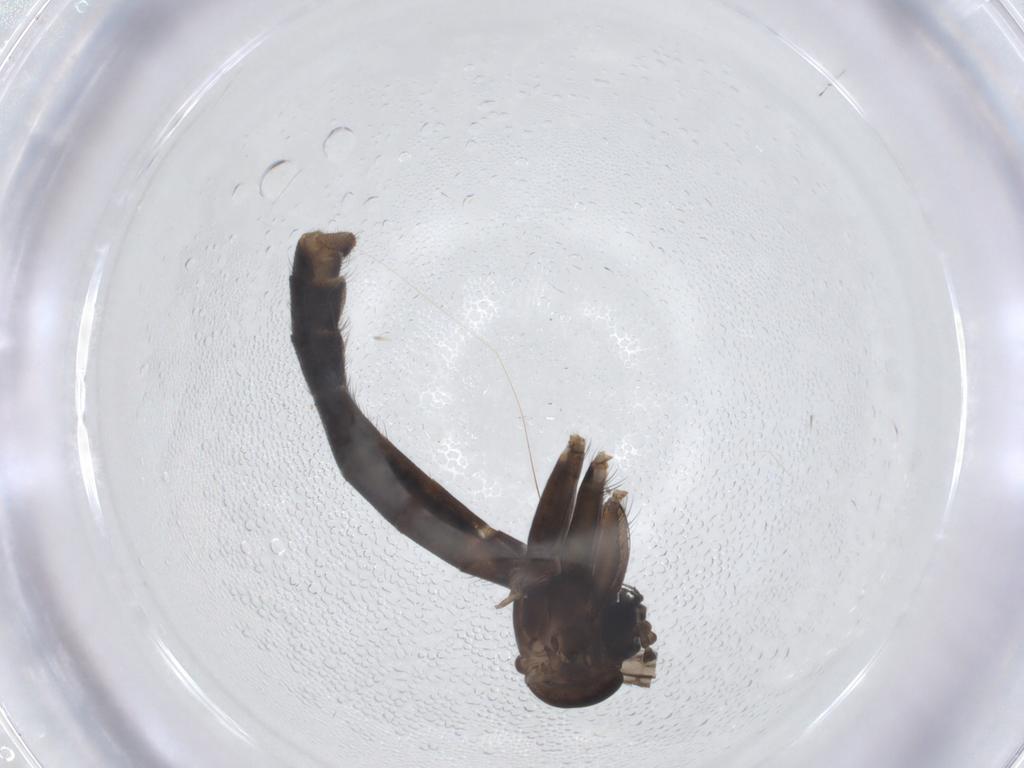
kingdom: Animalia
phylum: Arthropoda
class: Insecta
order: Diptera
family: Tachinidae
